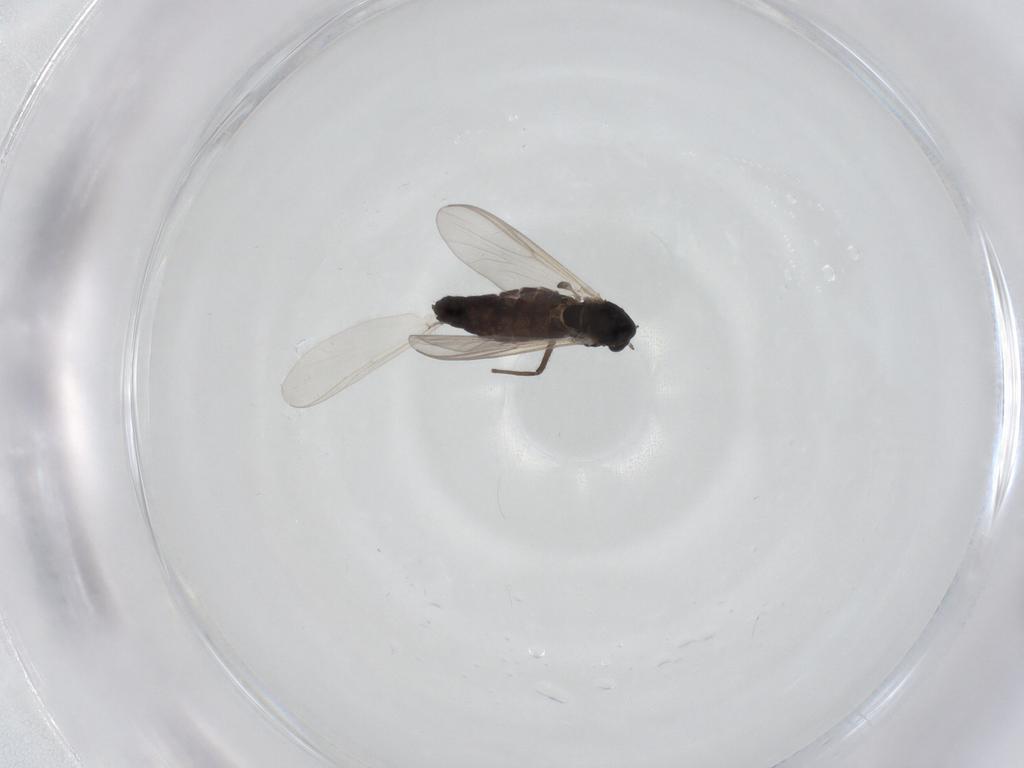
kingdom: Animalia
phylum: Arthropoda
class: Insecta
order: Diptera
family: Chironomidae
